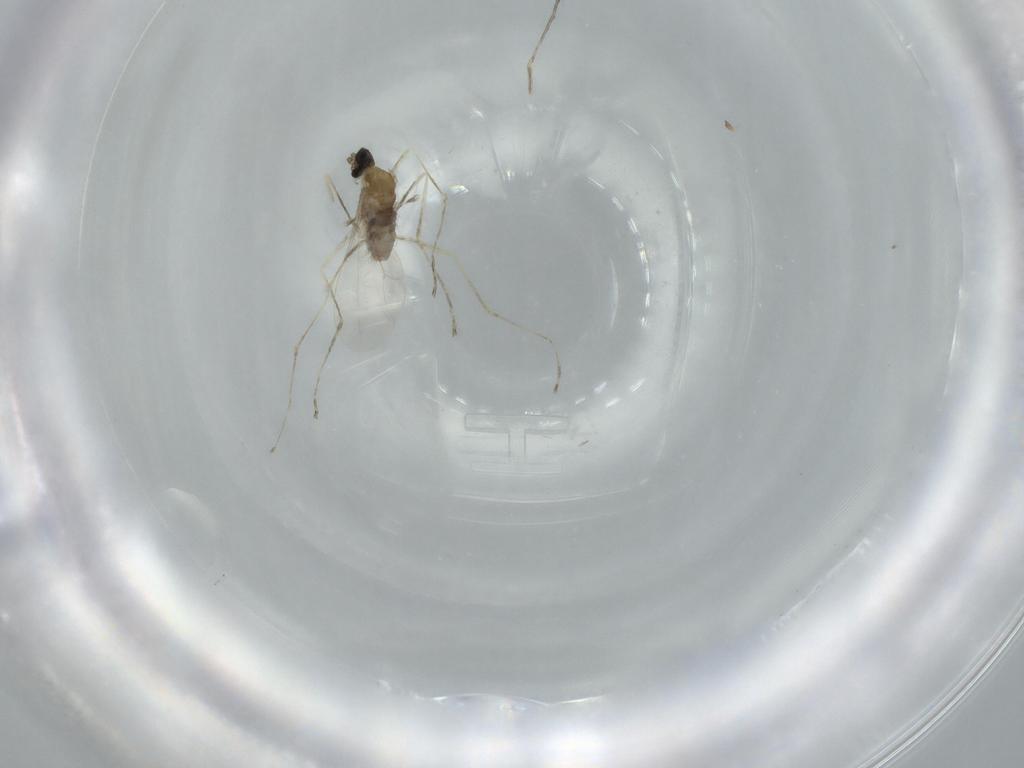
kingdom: Animalia
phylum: Arthropoda
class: Insecta
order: Diptera
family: Cecidomyiidae
